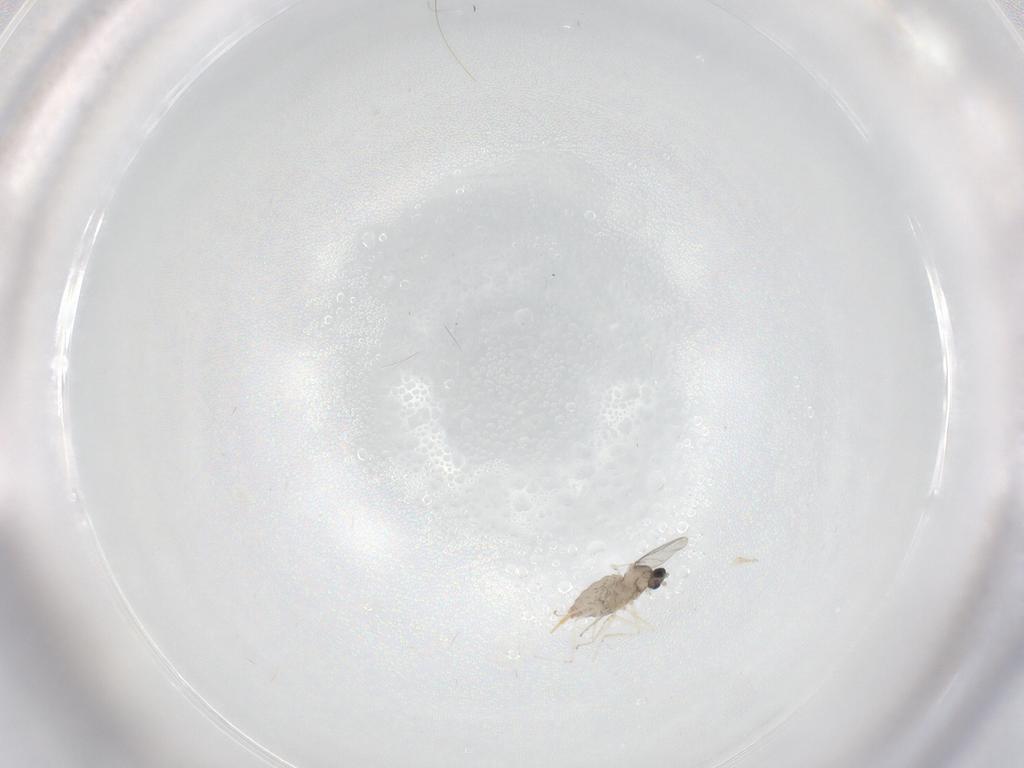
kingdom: Animalia
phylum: Arthropoda
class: Insecta
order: Diptera
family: Cecidomyiidae
